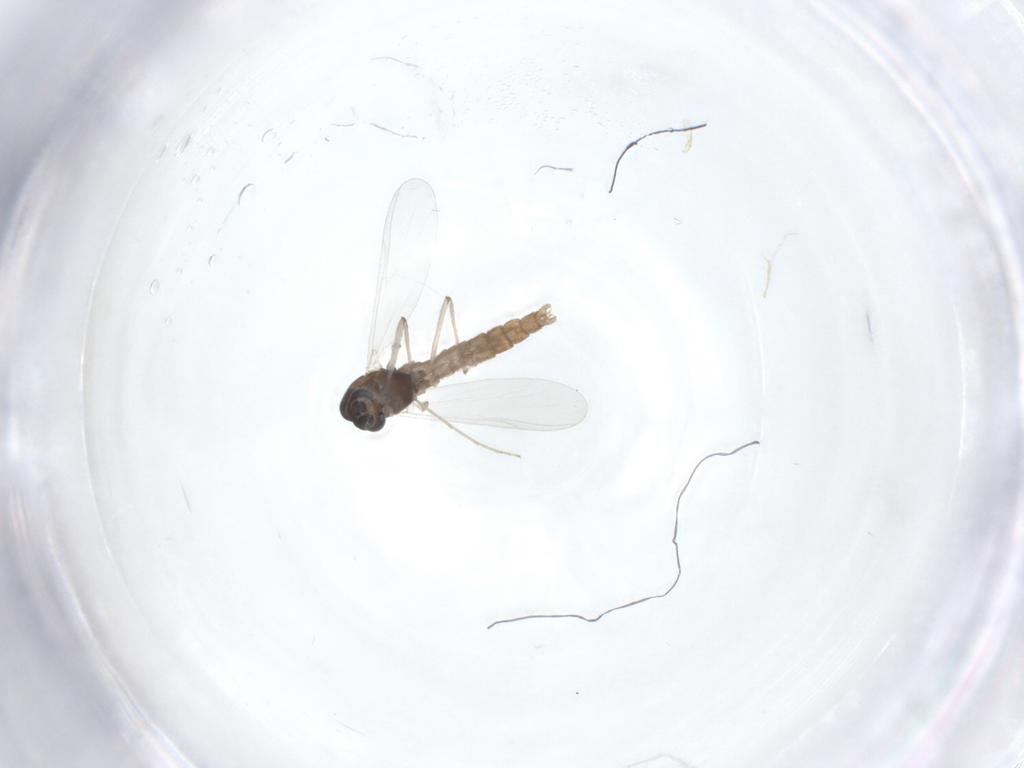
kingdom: Animalia
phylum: Arthropoda
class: Insecta
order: Diptera
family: Chironomidae
